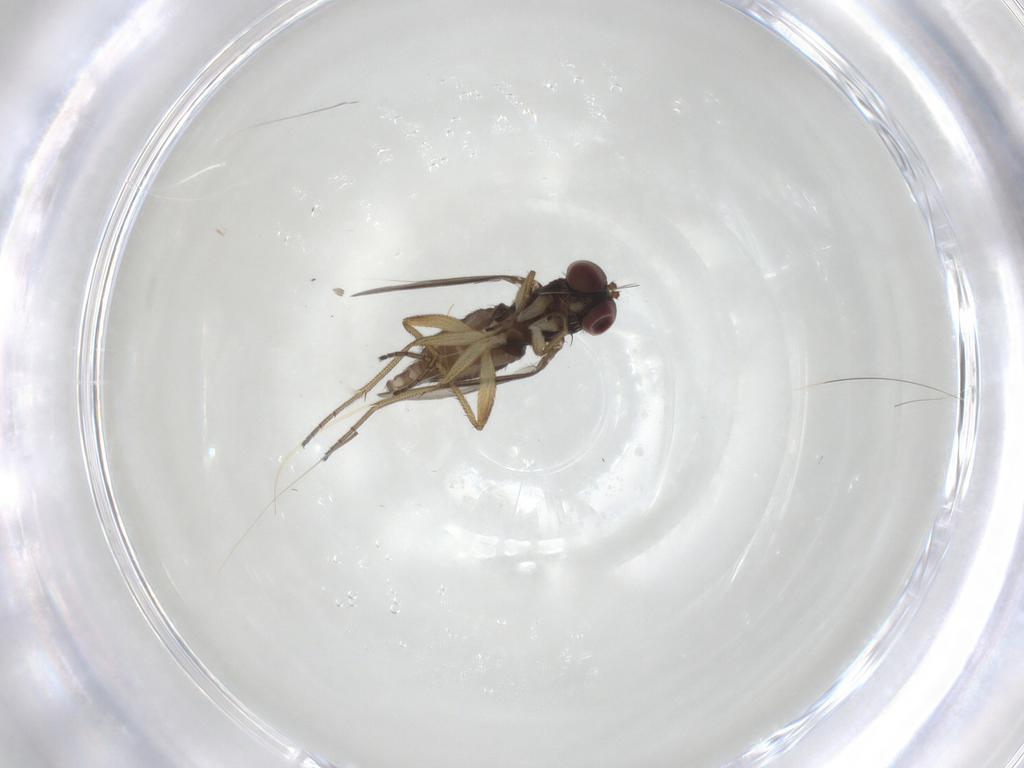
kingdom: Animalia
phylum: Arthropoda
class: Insecta
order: Diptera
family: Dolichopodidae
